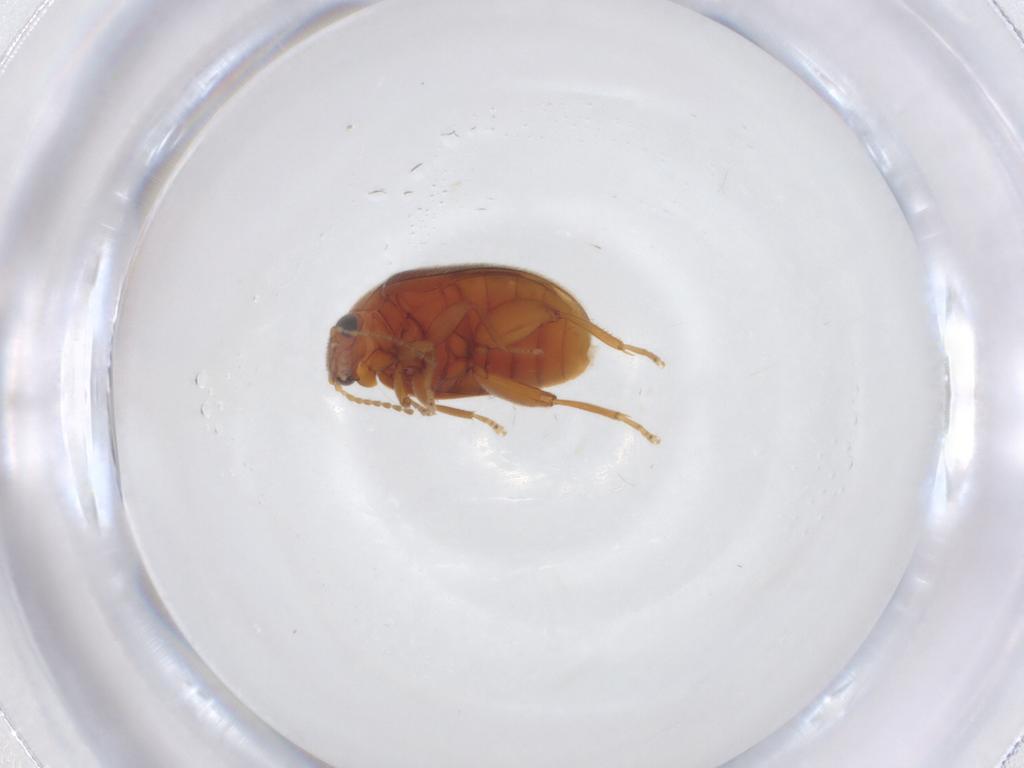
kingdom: Animalia
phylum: Arthropoda
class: Insecta
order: Coleoptera
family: Scirtidae
